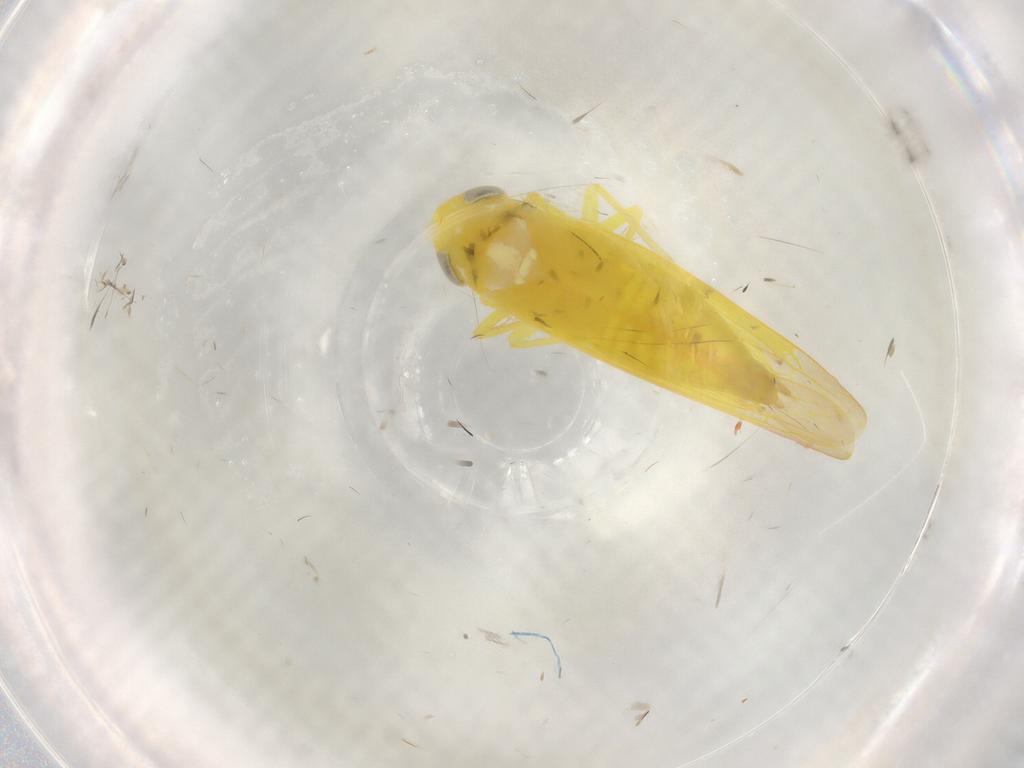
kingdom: Animalia
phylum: Arthropoda
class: Insecta
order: Hemiptera
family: Cicadellidae
